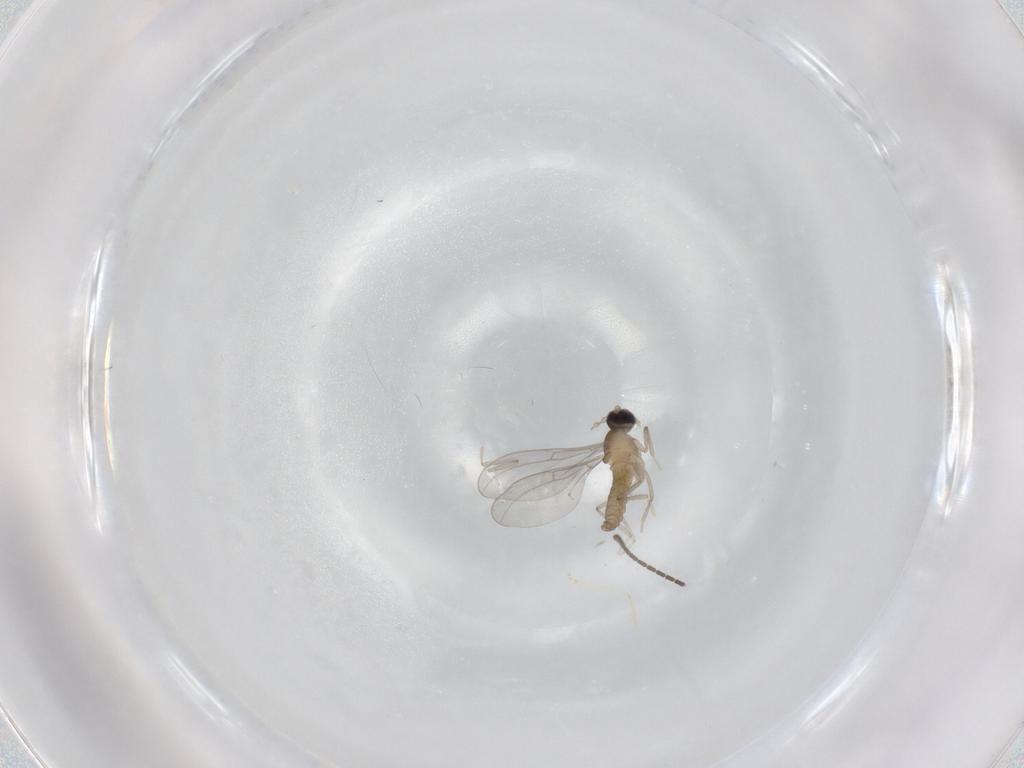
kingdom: Animalia
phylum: Arthropoda
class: Insecta
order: Diptera
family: Cecidomyiidae
